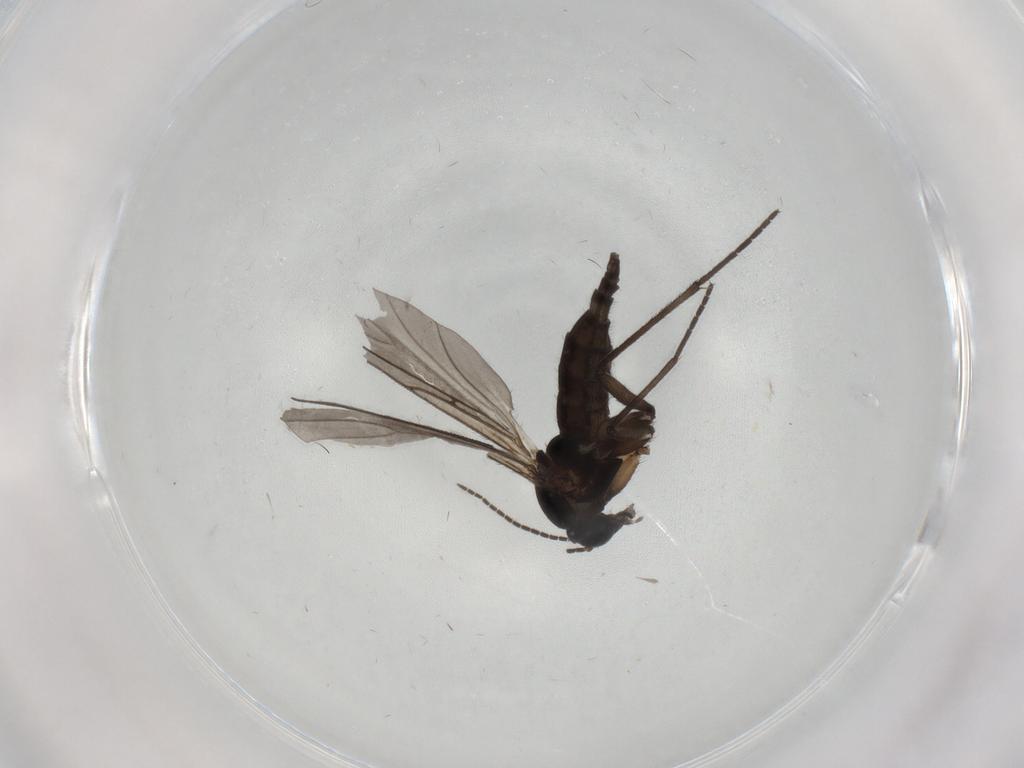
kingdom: Animalia
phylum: Arthropoda
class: Insecta
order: Diptera
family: Sciaridae
